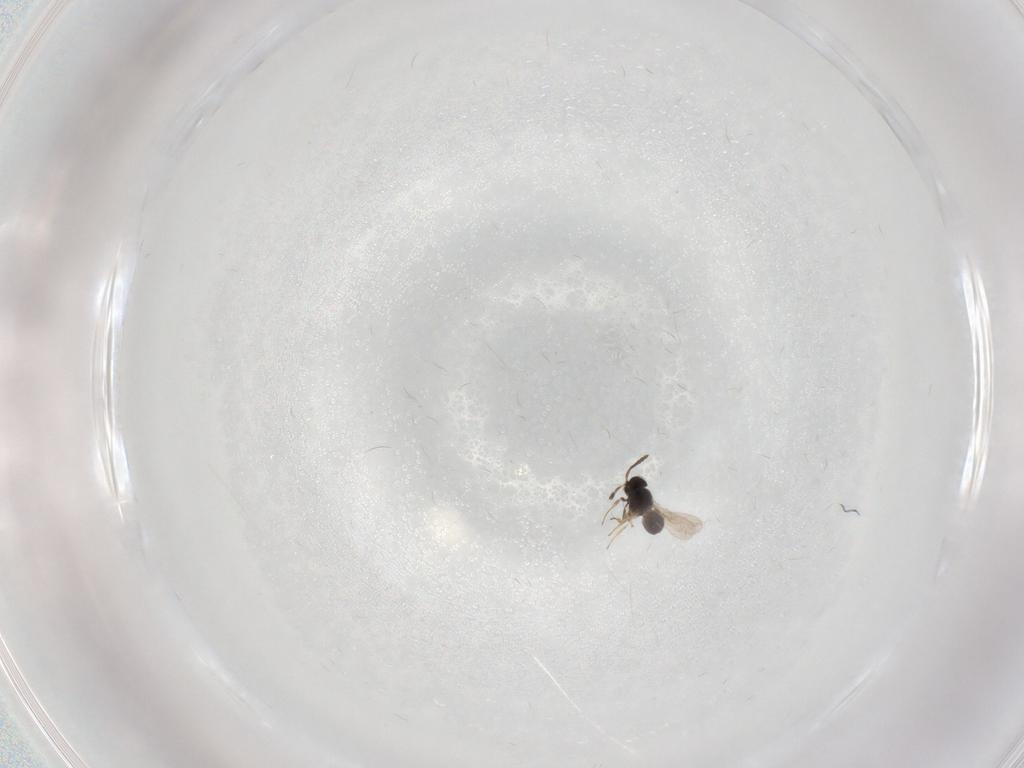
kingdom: Animalia
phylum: Arthropoda
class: Insecta
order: Hymenoptera
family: Scelionidae
